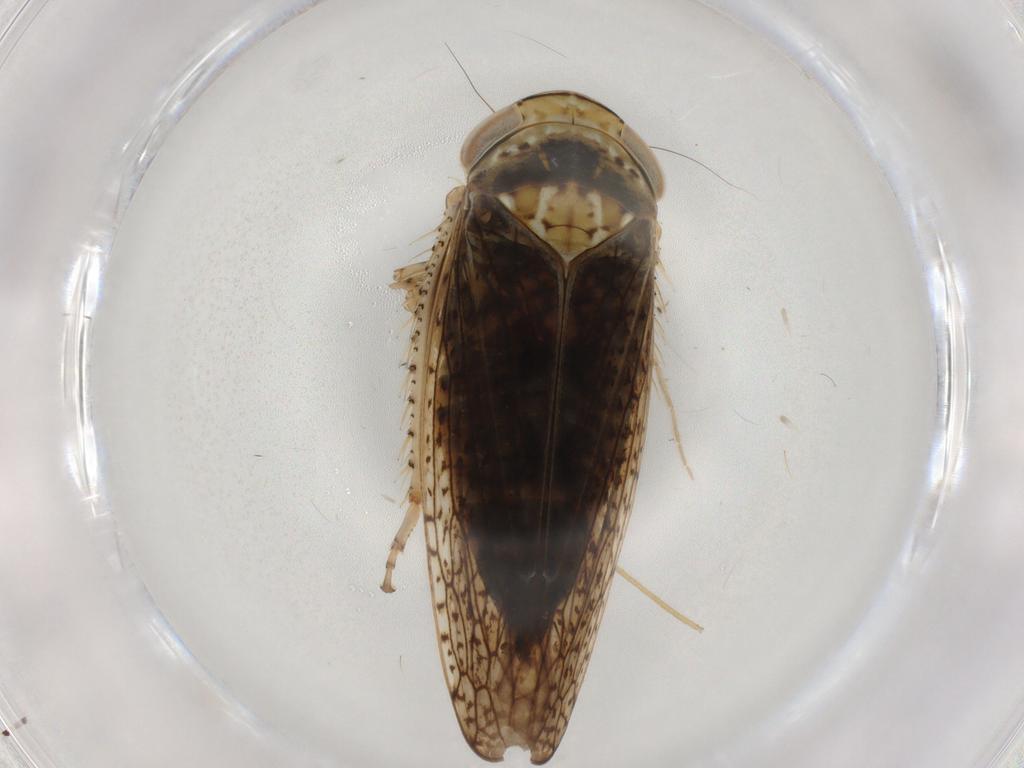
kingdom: Animalia
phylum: Arthropoda
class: Insecta
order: Hemiptera
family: Cicadellidae
